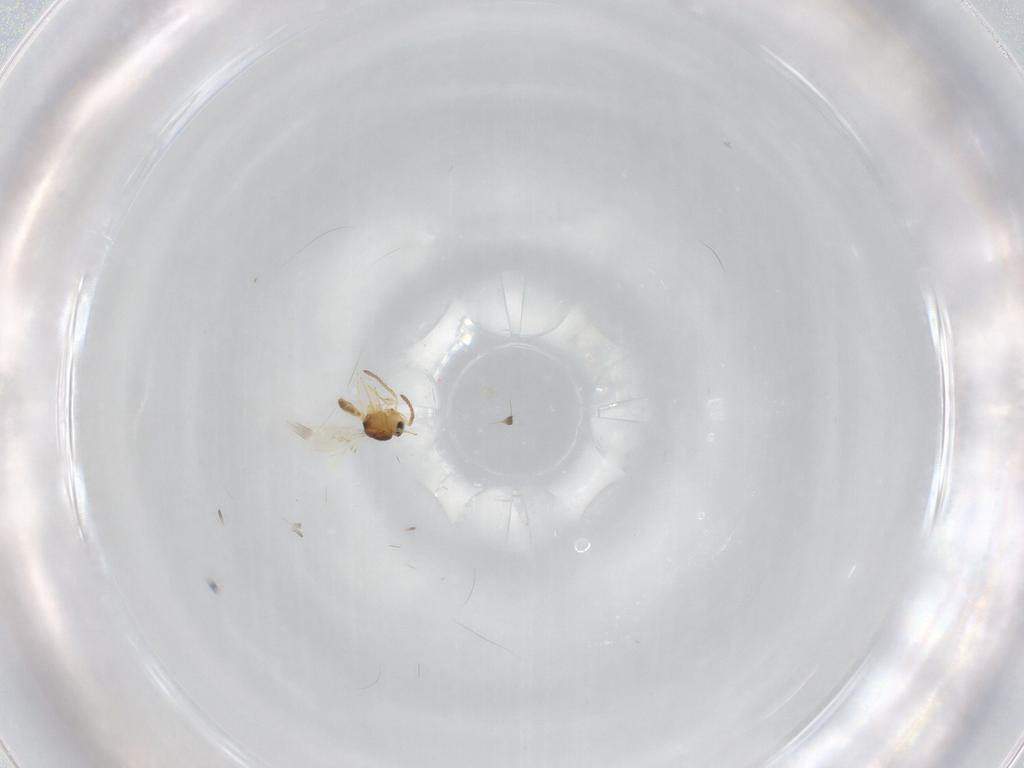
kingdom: Animalia
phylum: Arthropoda
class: Insecta
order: Hymenoptera
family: Scelionidae
